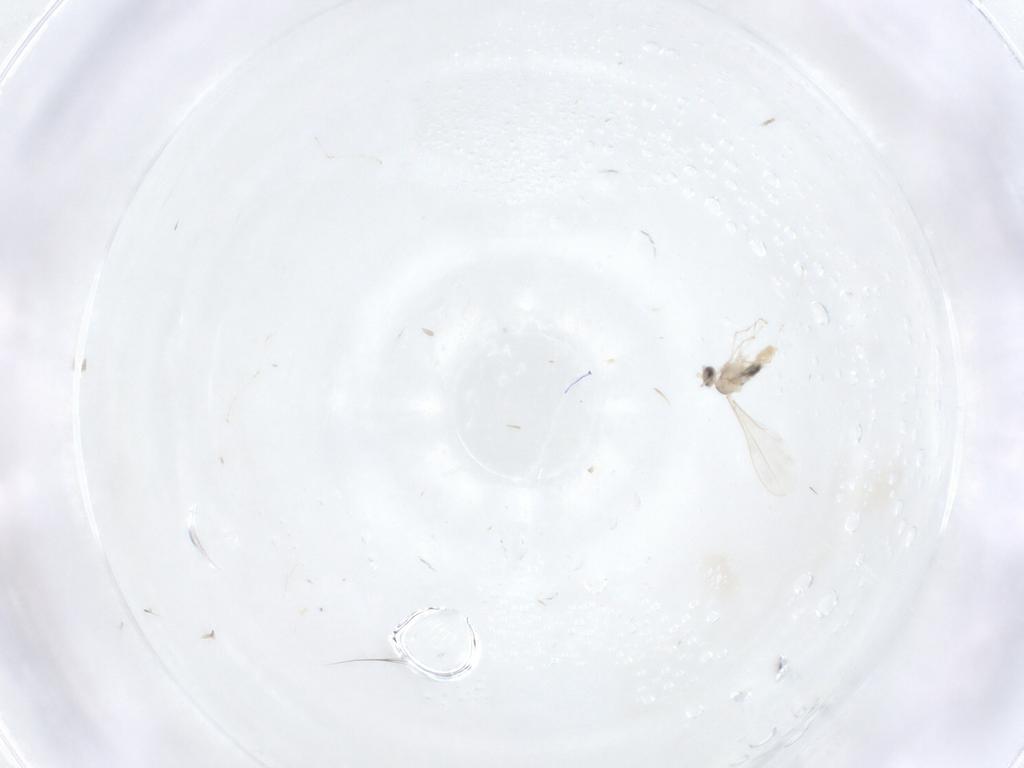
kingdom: Animalia
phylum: Arthropoda
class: Insecta
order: Diptera
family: Cecidomyiidae
